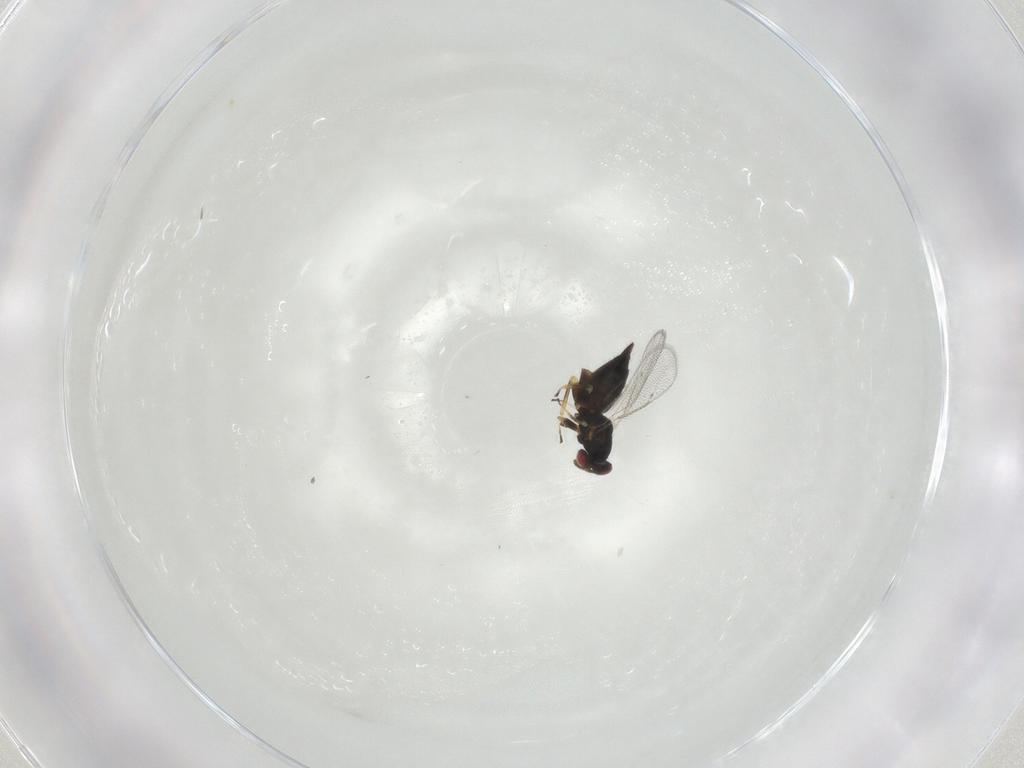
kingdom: Animalia
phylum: Arthropoda
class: Insecta
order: Hymenoptera
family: Eulophidae
